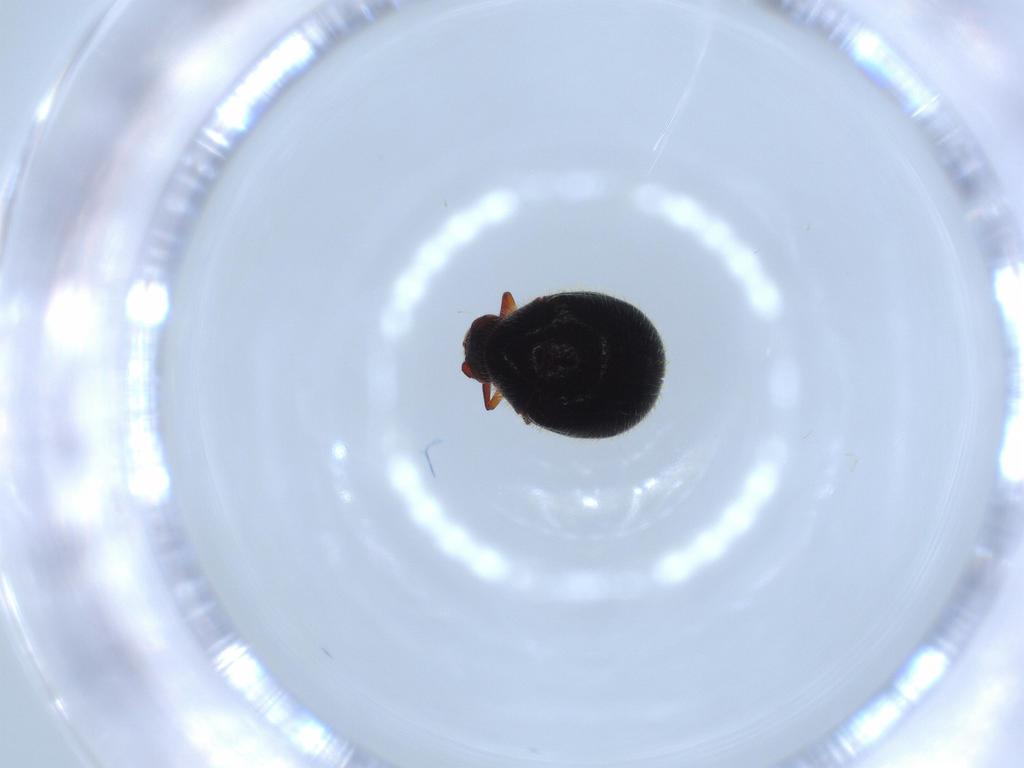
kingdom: Animalia
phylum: Arthropoda
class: Insecta
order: Coleoptera
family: Ptinidae
